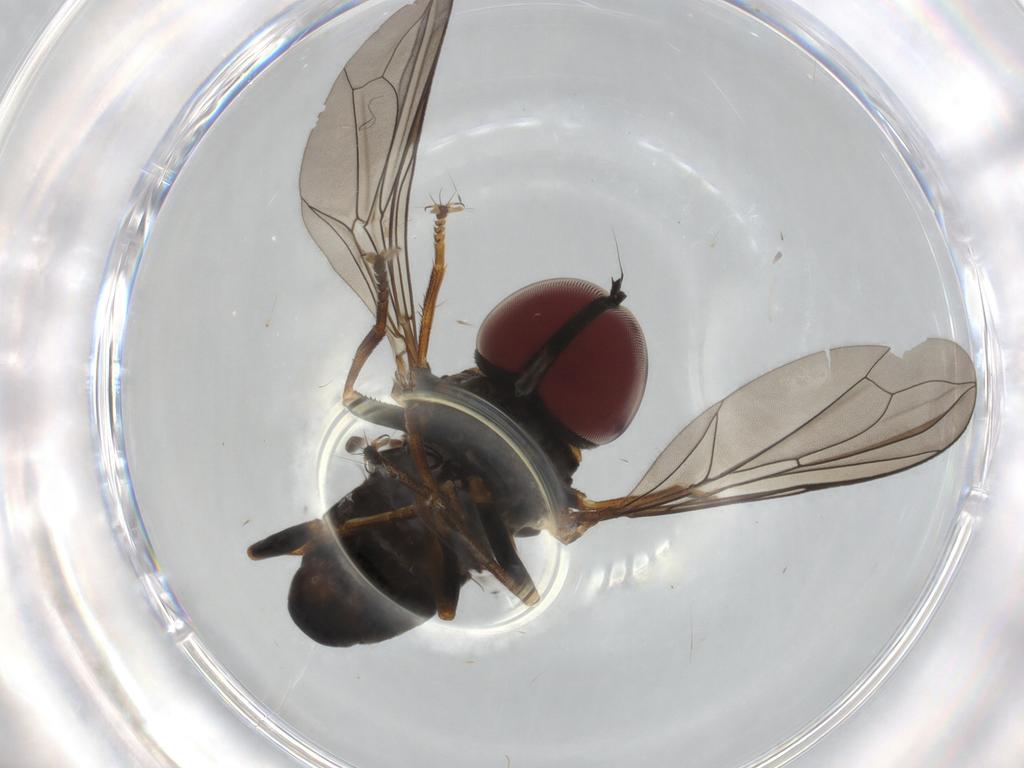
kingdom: Animalia
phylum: Arthropoda
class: Insecta
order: Diptera
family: Pipunculidae
